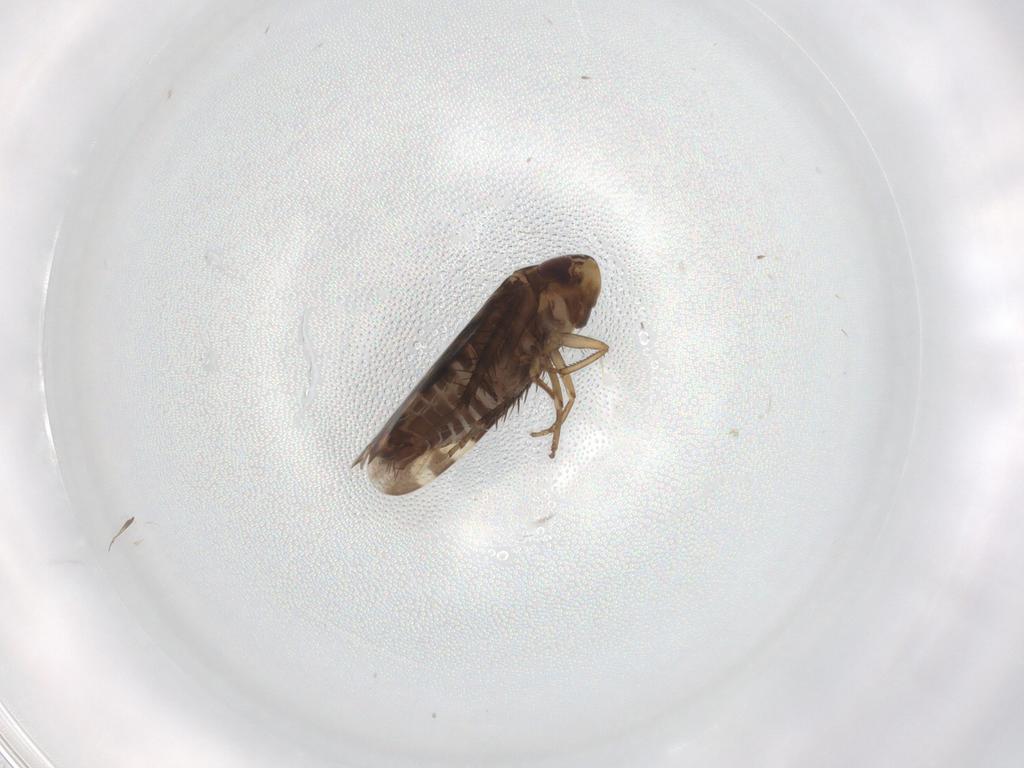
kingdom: Animalia
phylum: Arthropoda
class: Insecta
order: Hemiptera
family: Cicadellidae
